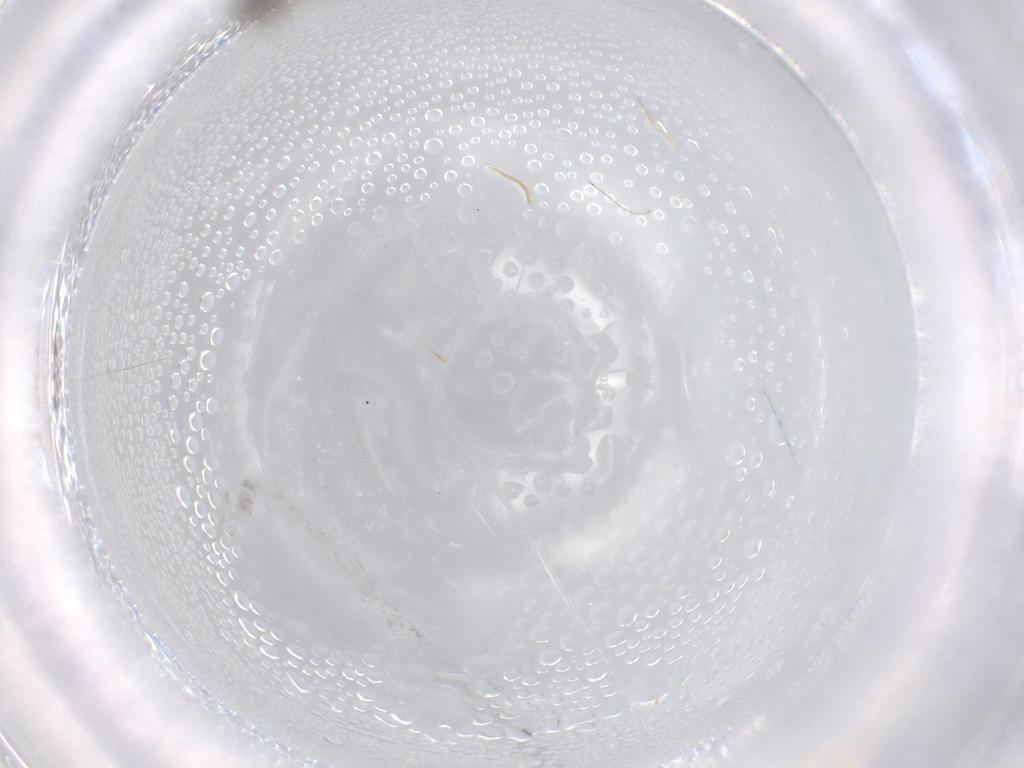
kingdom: Animalia
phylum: Arthropoda
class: Insecta
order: Diptera
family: Chironomidae
